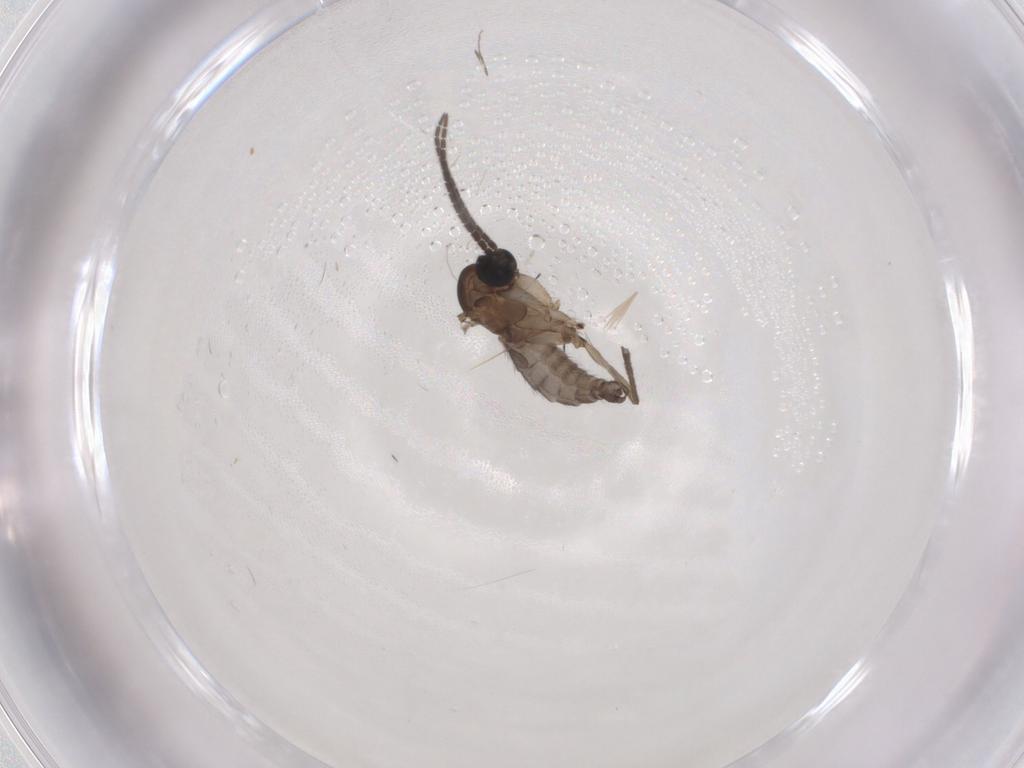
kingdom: Animalia
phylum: Arthropoda
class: Insecta
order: Diptera
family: Sciaridae
